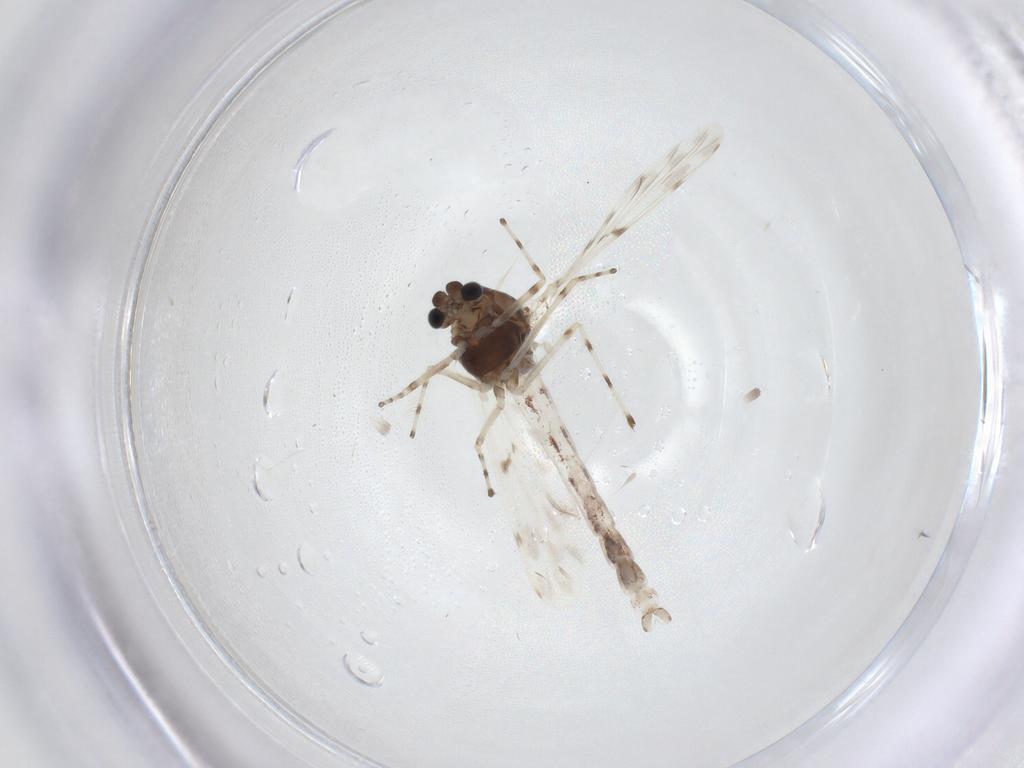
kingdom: Animalia
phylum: Arthropoda
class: Insecta
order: Diptera
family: Chironomidae
